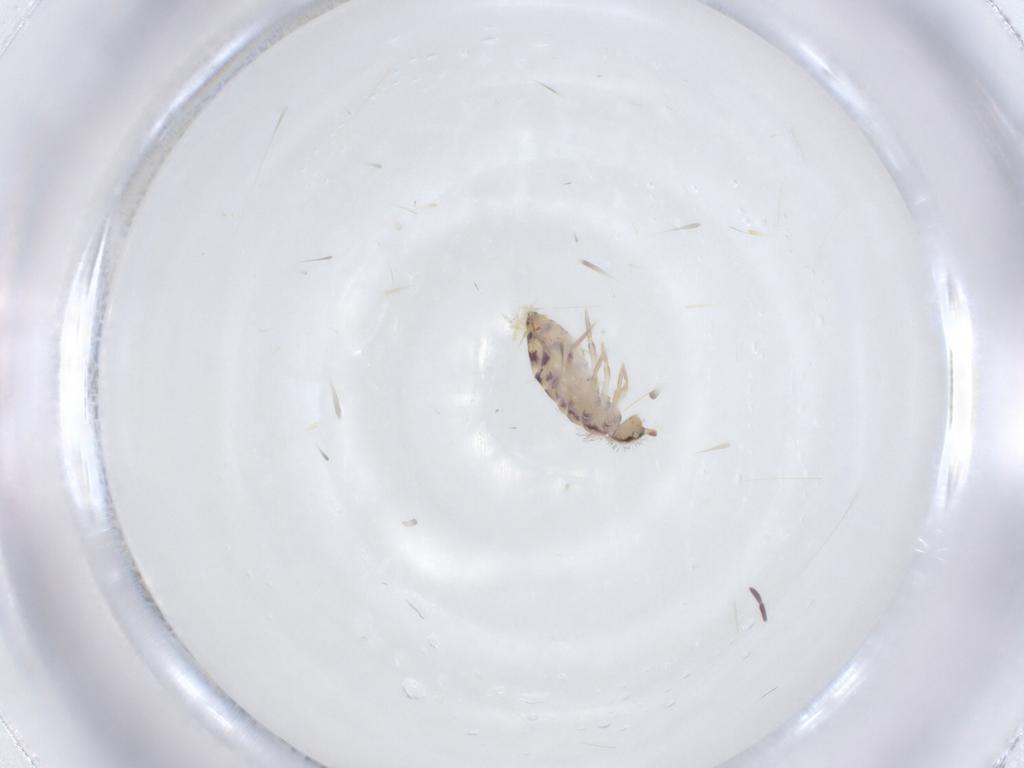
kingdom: Animalia
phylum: Arthropoda
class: Collembola
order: Entomobryomorpha
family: Entomobryidae
